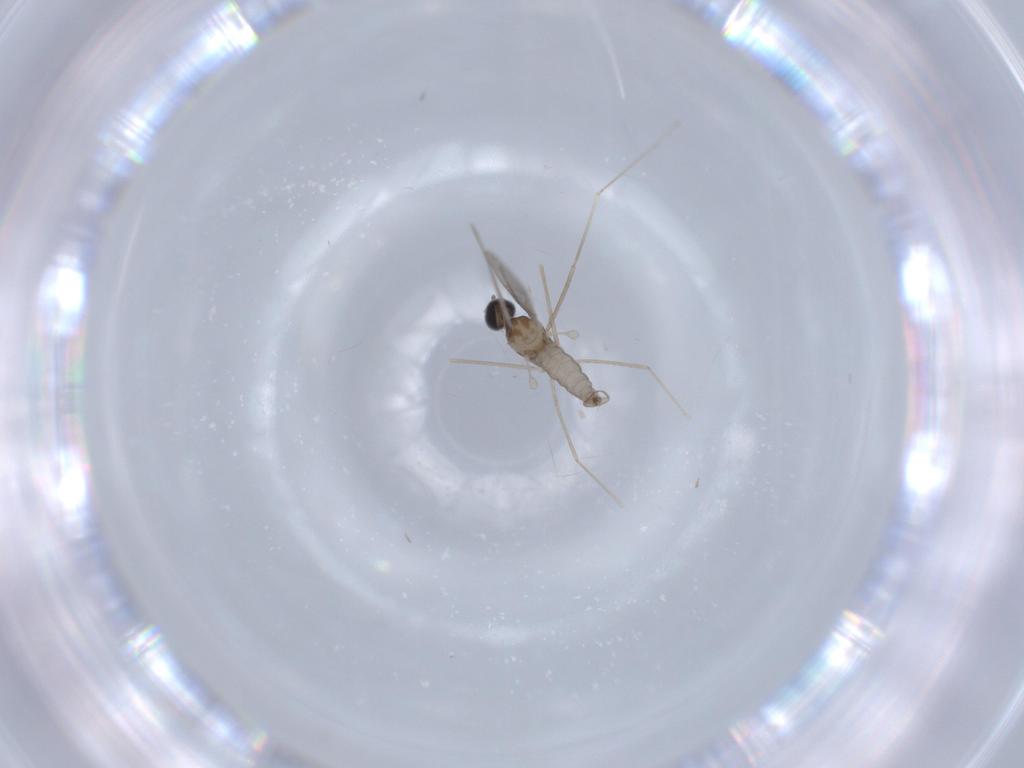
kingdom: Animalia
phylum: Arthropoda
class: Insecta
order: Diptera
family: Cecidomyiidae
